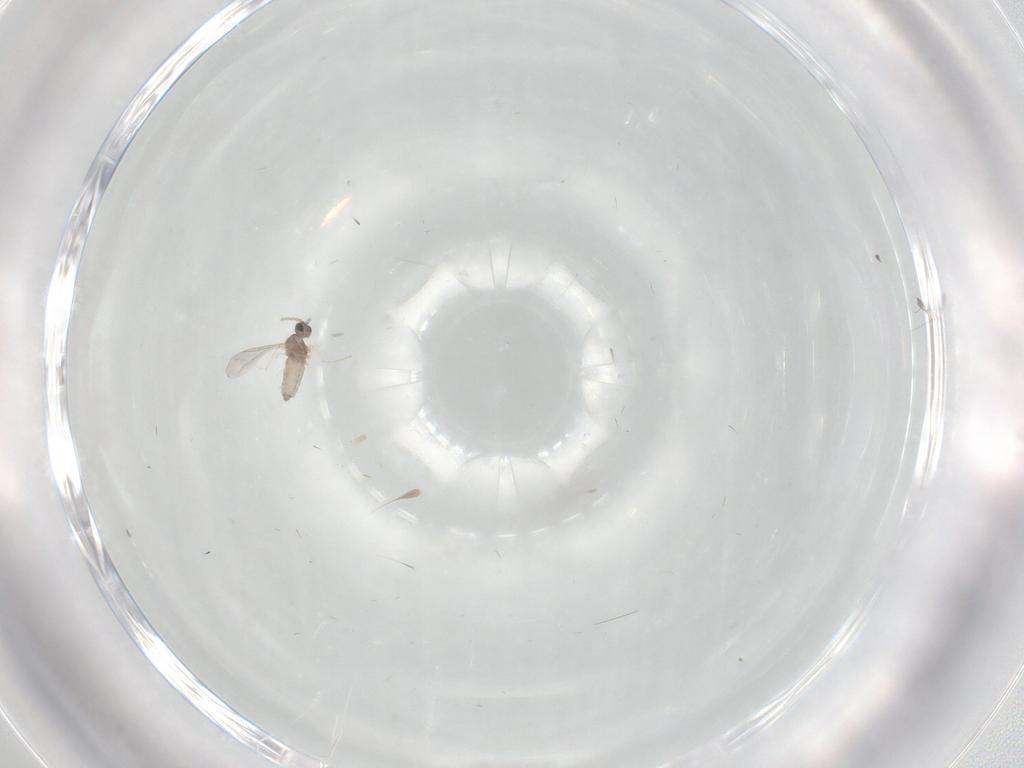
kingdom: Animalia
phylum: Arthropoda
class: Insecta
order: Diptera
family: Cecidomyiidae
